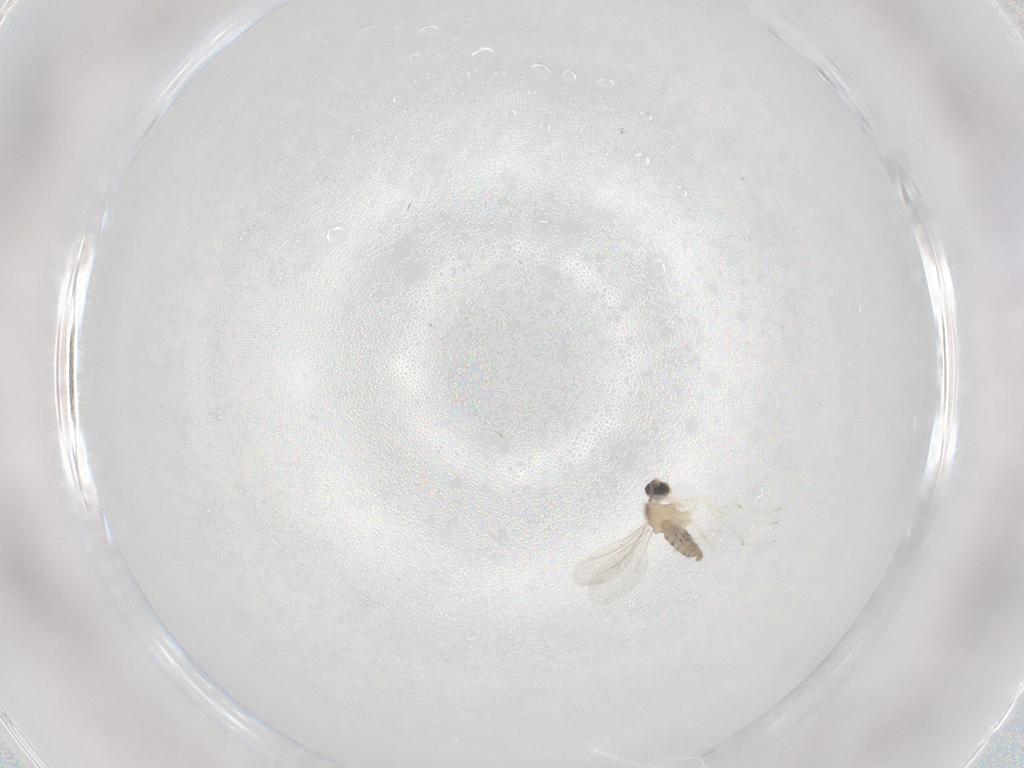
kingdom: Animalia
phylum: Arthropoda
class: Insecta
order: Diptera
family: Cecidomyiidae
